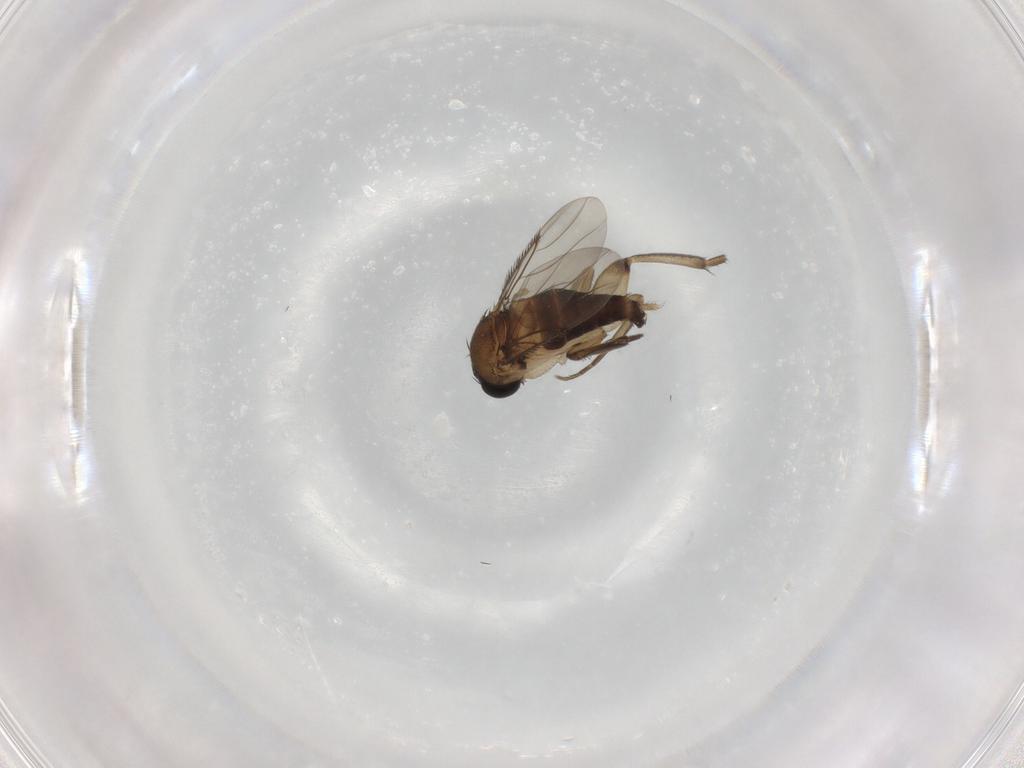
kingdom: Animalia
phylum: Arthropoda
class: Insecta
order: Diptera
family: Phoridae
